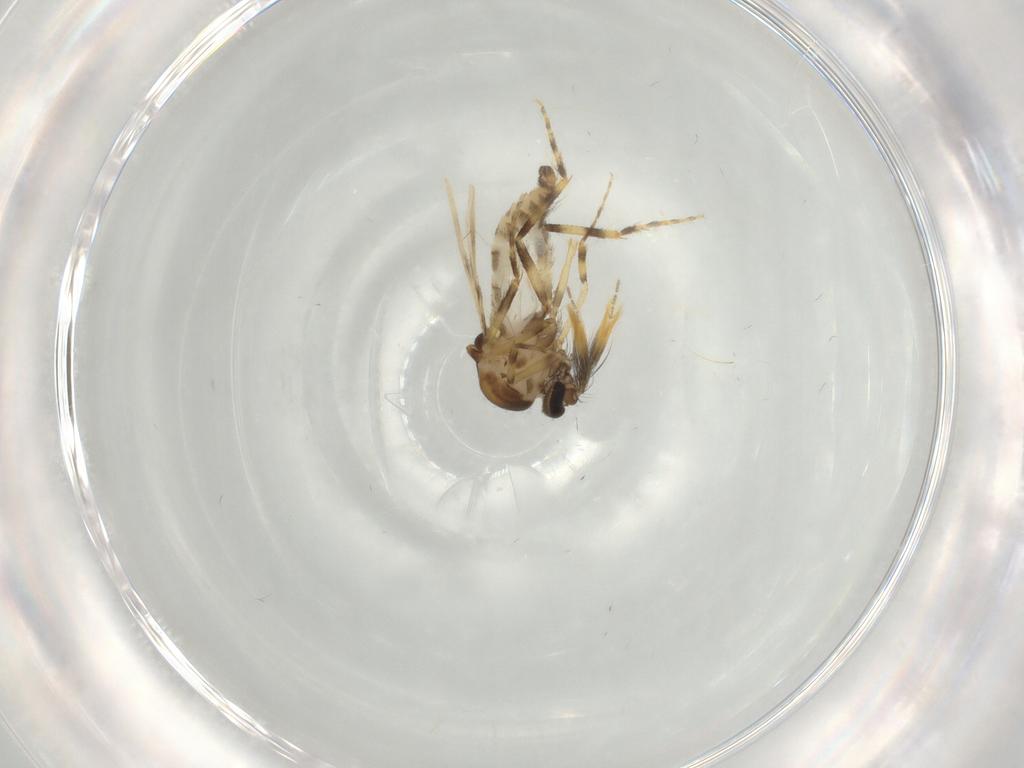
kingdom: Animalia
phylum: Arthropoda
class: Insecta
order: Diptera
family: Ceratopogonidae
